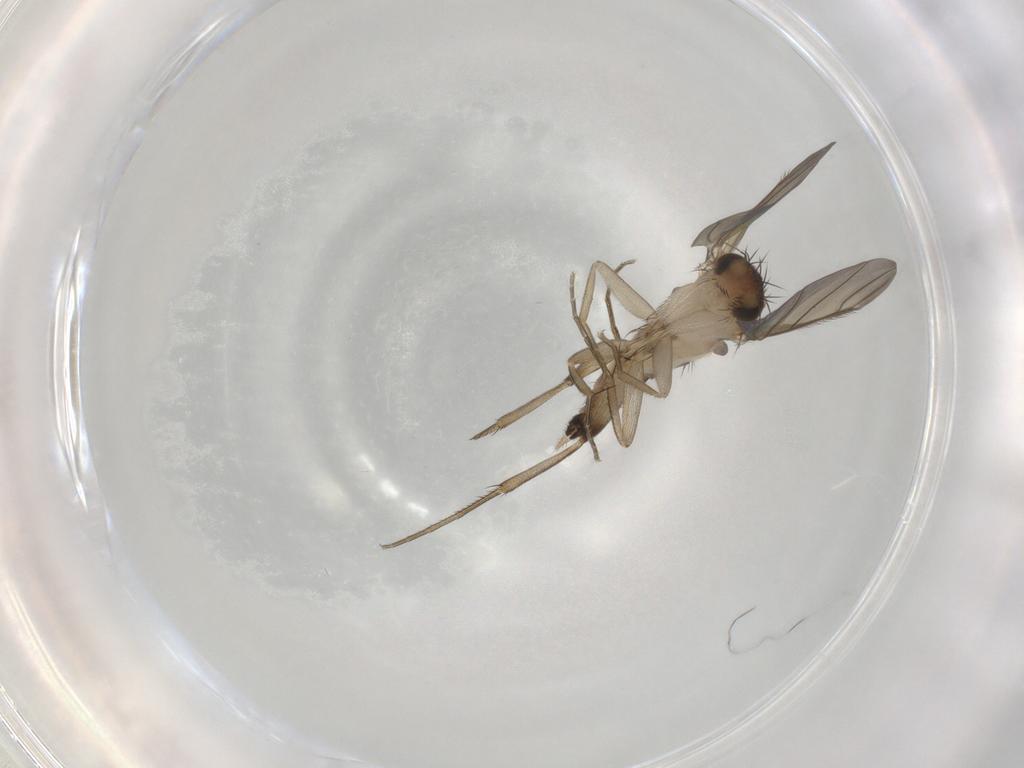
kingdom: Animalia
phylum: Arthropoda
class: Insecta
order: Diptera
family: Phoridae
